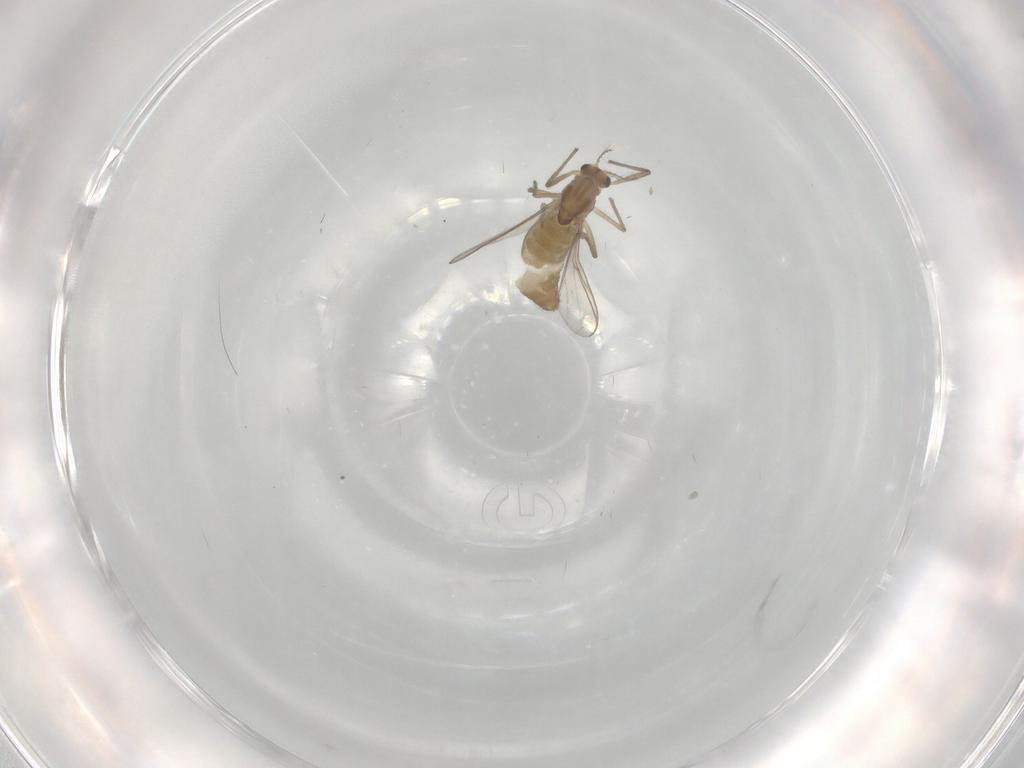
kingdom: Animalia
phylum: Arthropoda
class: Insecta
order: Diptera
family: Chironomidae
